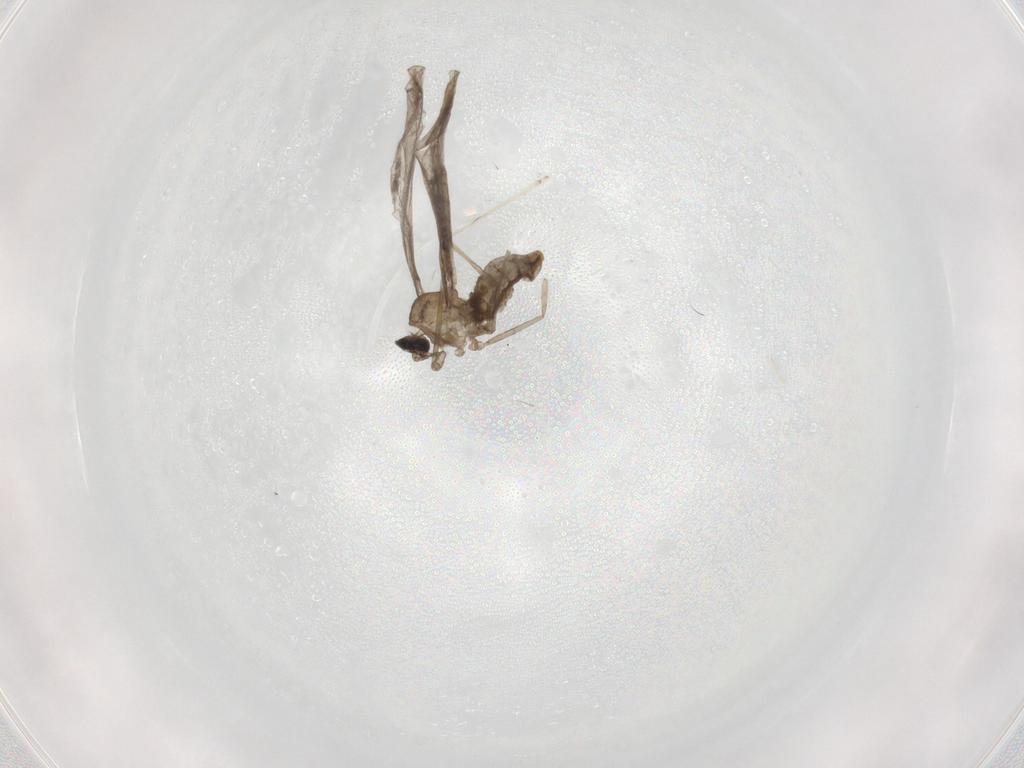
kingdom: Animalia
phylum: Arthropoda
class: Insecta
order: Diptera
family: Cecidomyiidae
